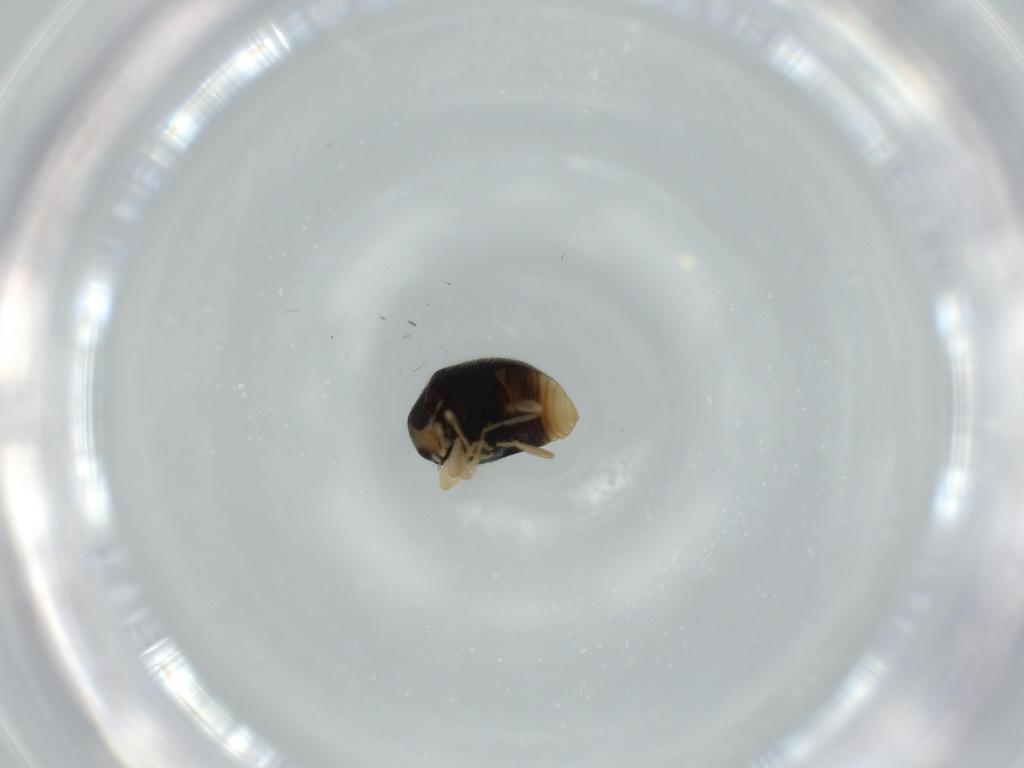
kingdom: Animalia
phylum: Arthropoda
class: Insecta
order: Coleoptera
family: Coccinellidae
